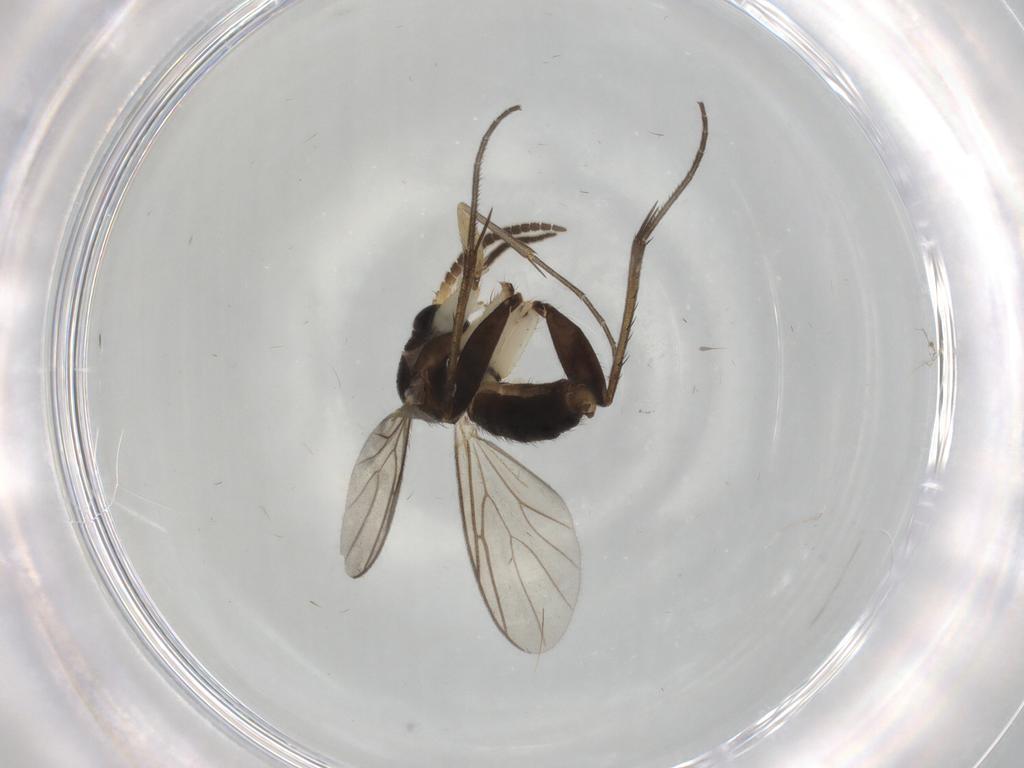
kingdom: Animalia
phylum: Arthropoda
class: Insecta
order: Diptera
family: Mycetophilidae
